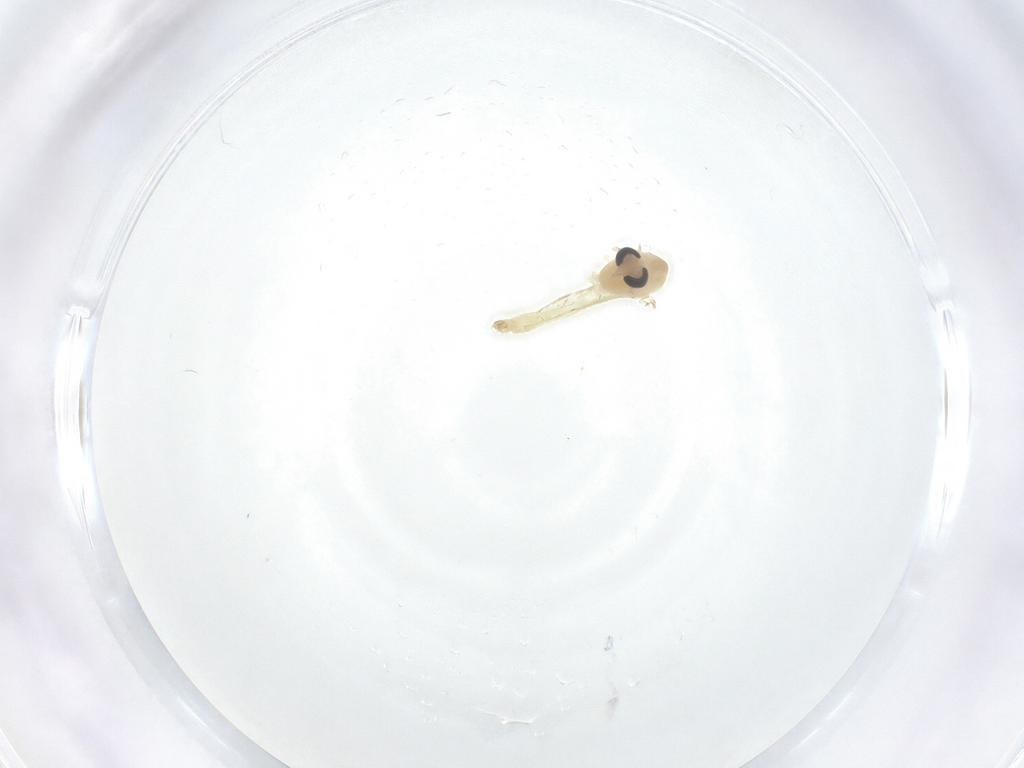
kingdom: Animalia
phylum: Arthropoda
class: Insecta
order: Diptera
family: Chironomidae
